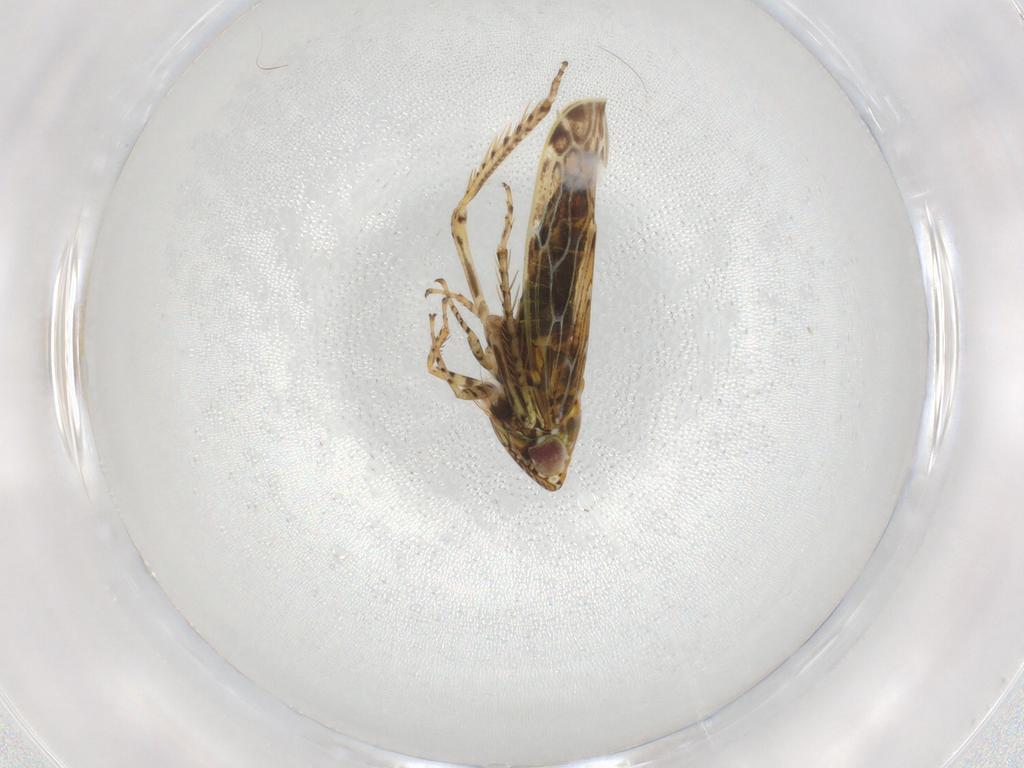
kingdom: Animalia
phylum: Arthropoda
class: Insecta
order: Hemiptera
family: Cicadellidae
